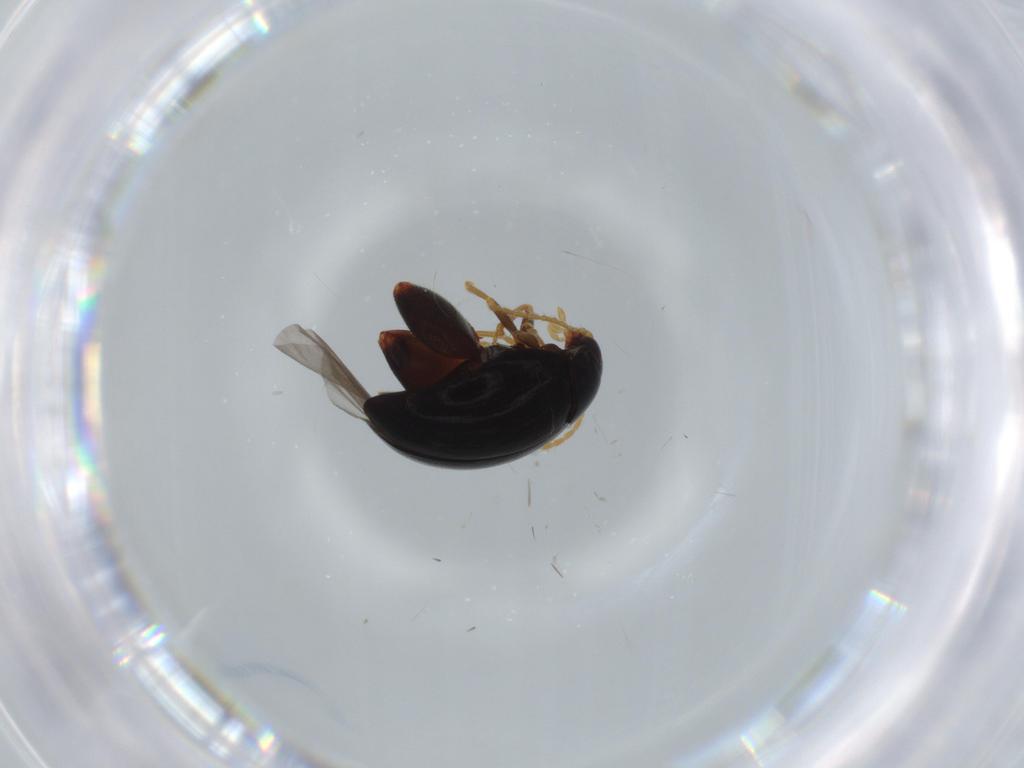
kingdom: Animalia
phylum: Arthropoda
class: Insecta
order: Coleoptera
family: Chrysomelidae
